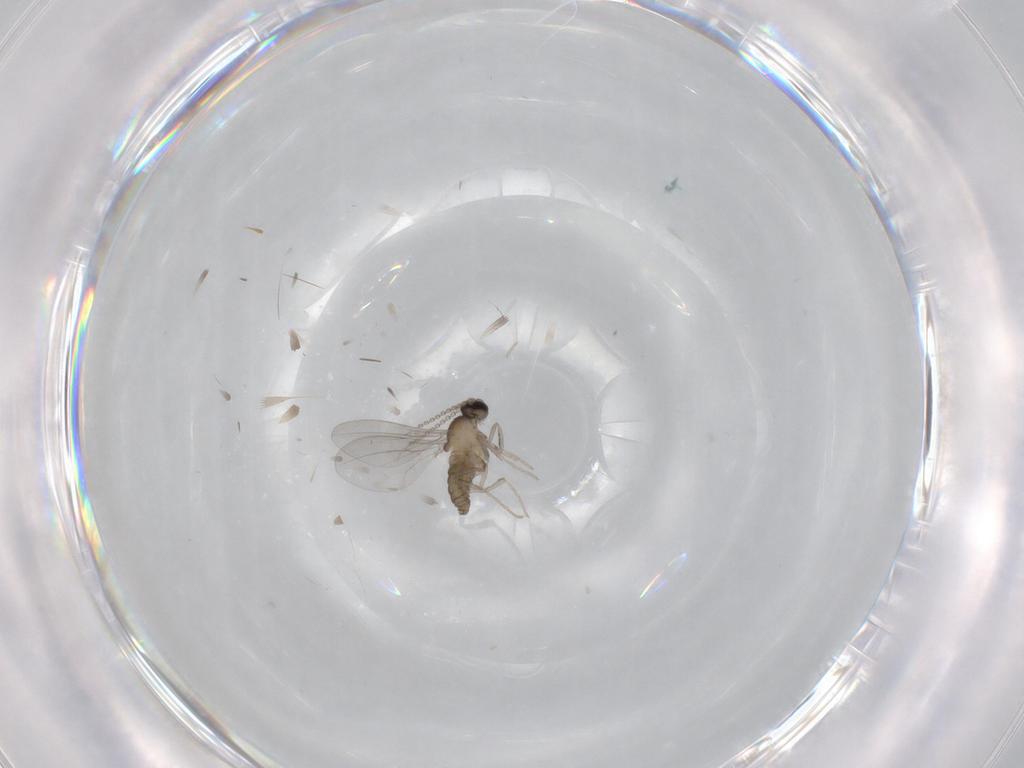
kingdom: Animalia
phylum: Arthropoda
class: Insecta
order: Diptera
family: Cecidomyiidae
